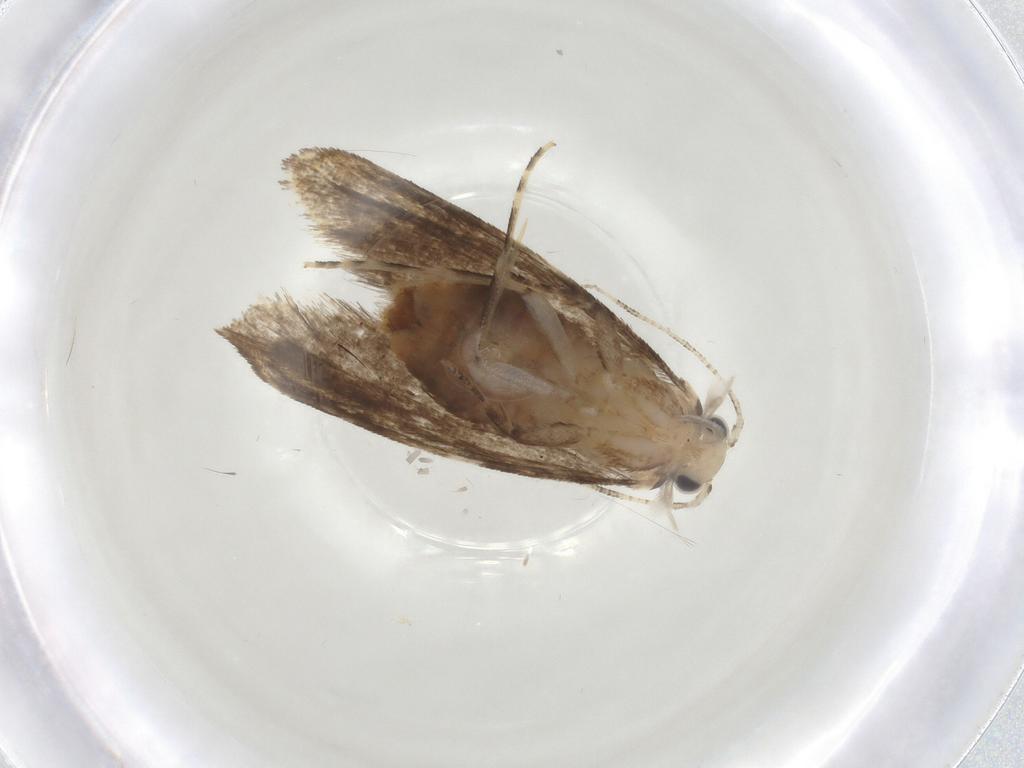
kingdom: Animalia
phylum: Arthropoda
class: Insecta
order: Lepidoptera
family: Tineidae
